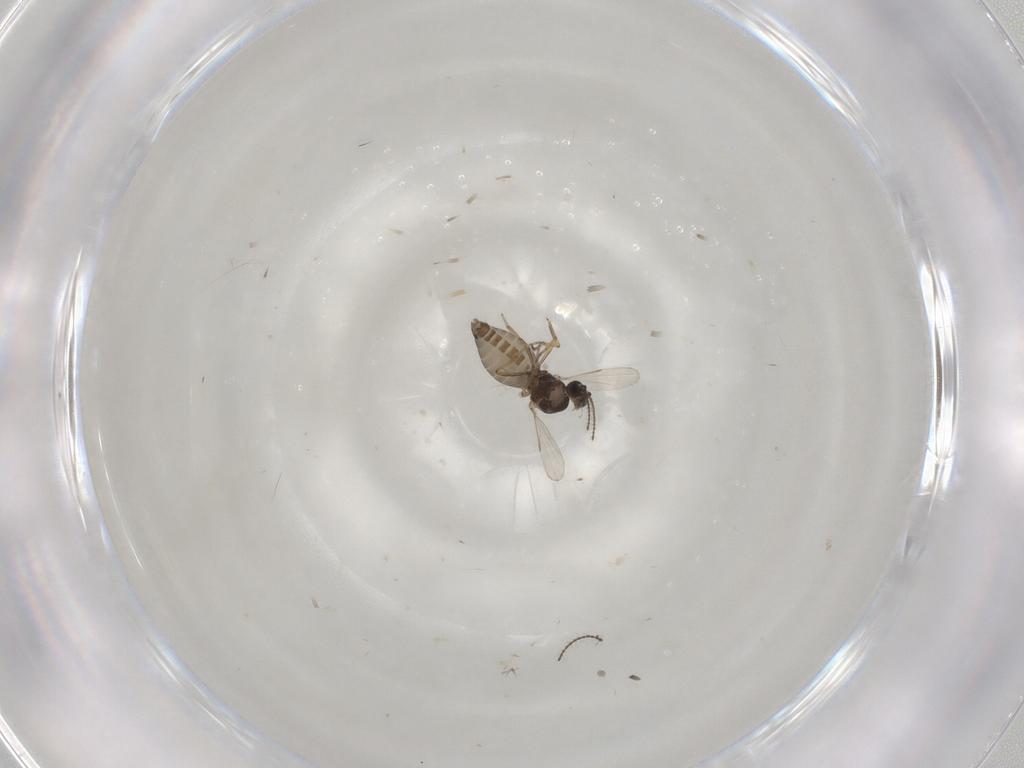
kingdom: Animalia
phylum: Arthropoda
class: Insecta
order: Diptera
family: Ceratopogonidae
